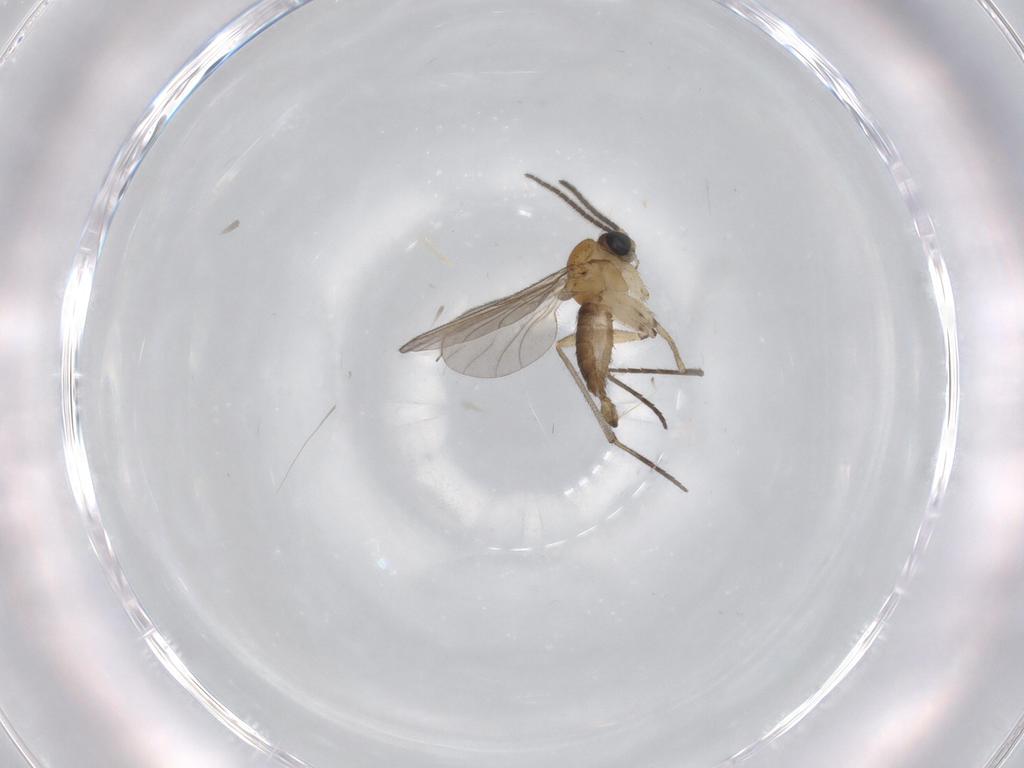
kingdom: Animalia
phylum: Arthropoda
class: Insecta
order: Diptera
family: Sciaridae
